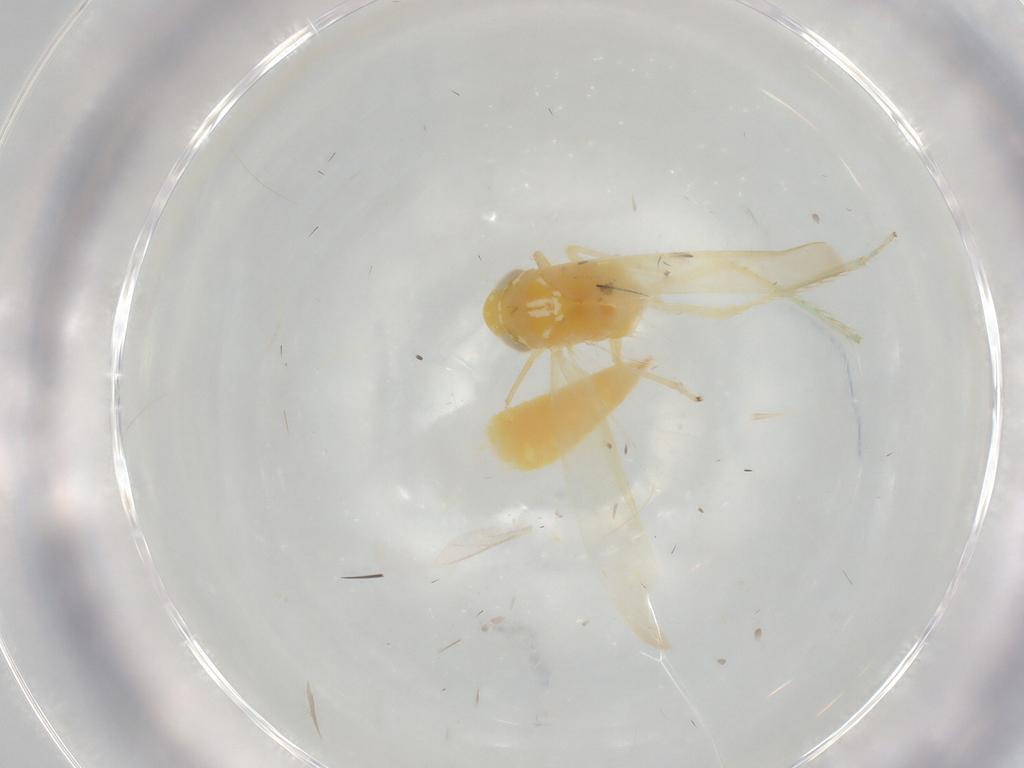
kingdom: Animalia
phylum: Arthropoda
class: Insecta
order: Hemiptera
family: Cicadellidae
